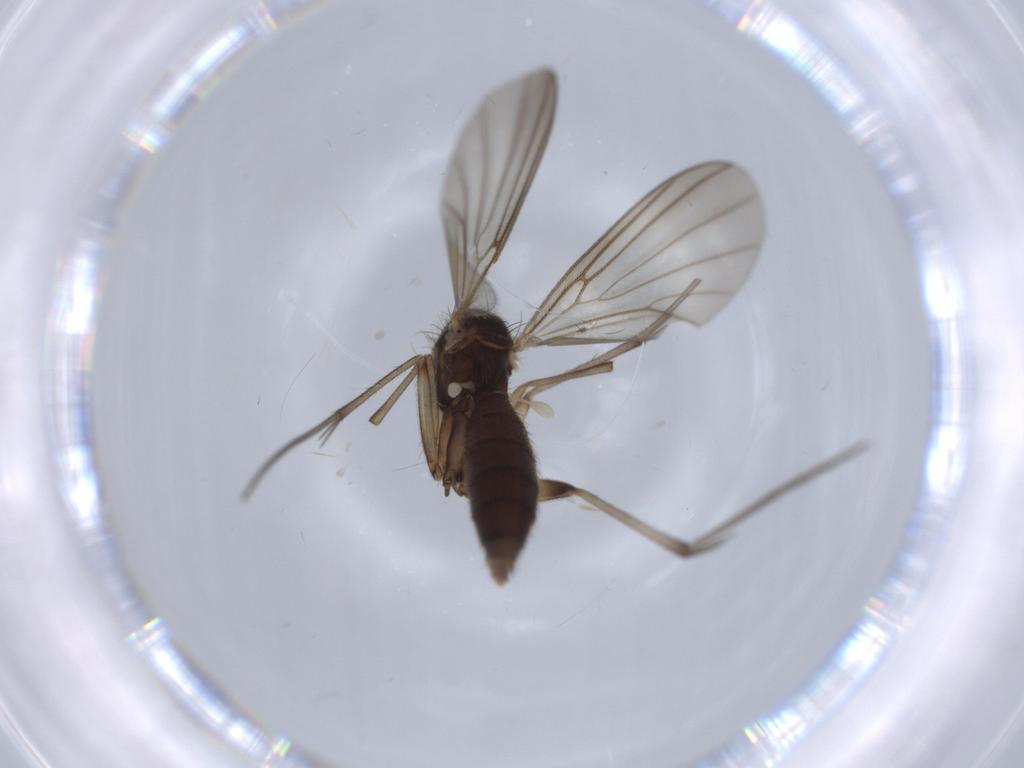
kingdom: Animalia
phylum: Arthropoda
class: Insecta
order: Diptera
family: Mycetophilidae
